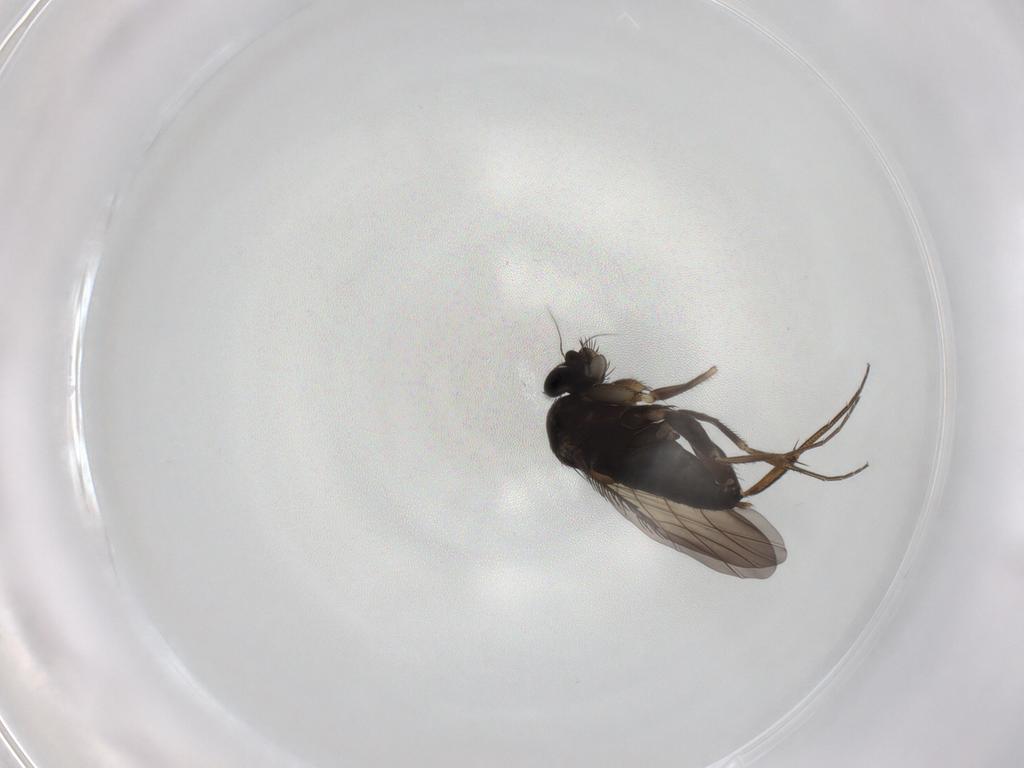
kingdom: Animalia
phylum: Arthropoda
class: Insecta
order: Diptera
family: Phoridae
